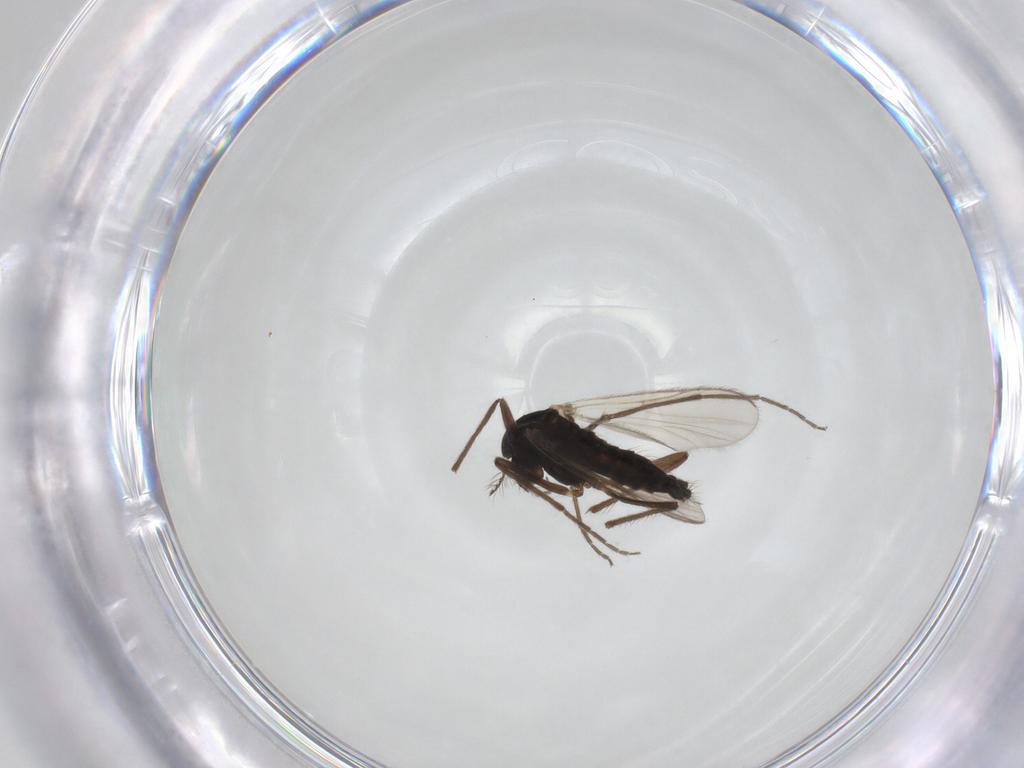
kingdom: Animalia
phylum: Arthropoda
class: Insecta
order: Diptera
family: Chironomidae
